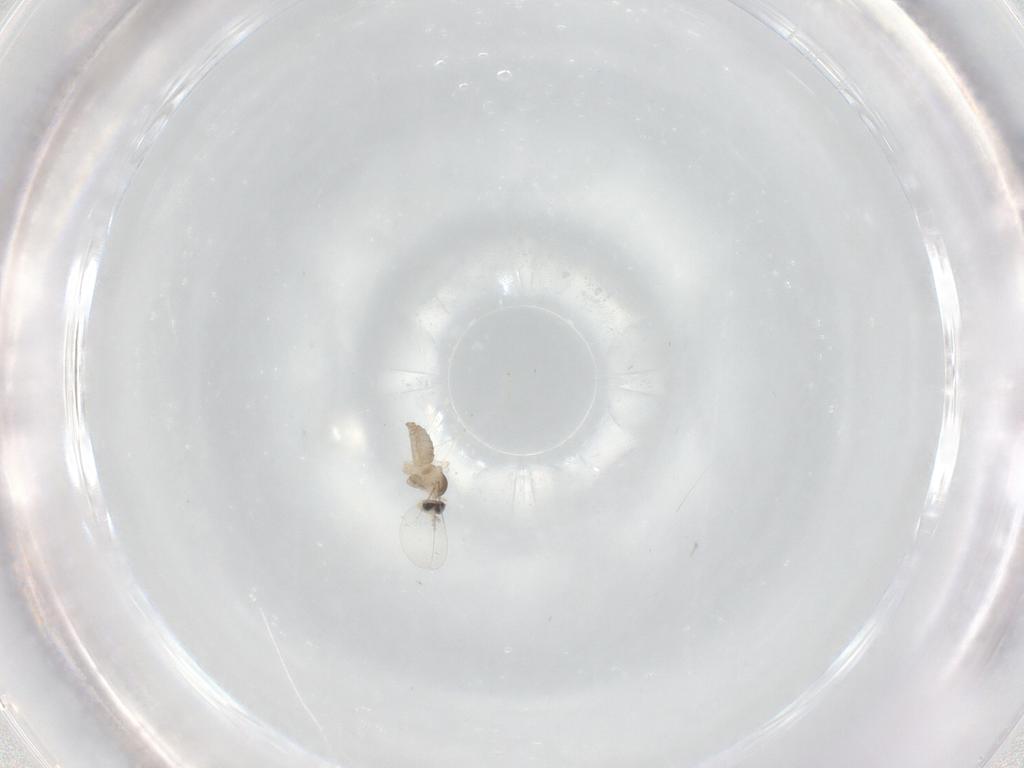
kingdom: Animalia
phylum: Arthropoda
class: Insecta
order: Diptera
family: Cecidomyiidae
